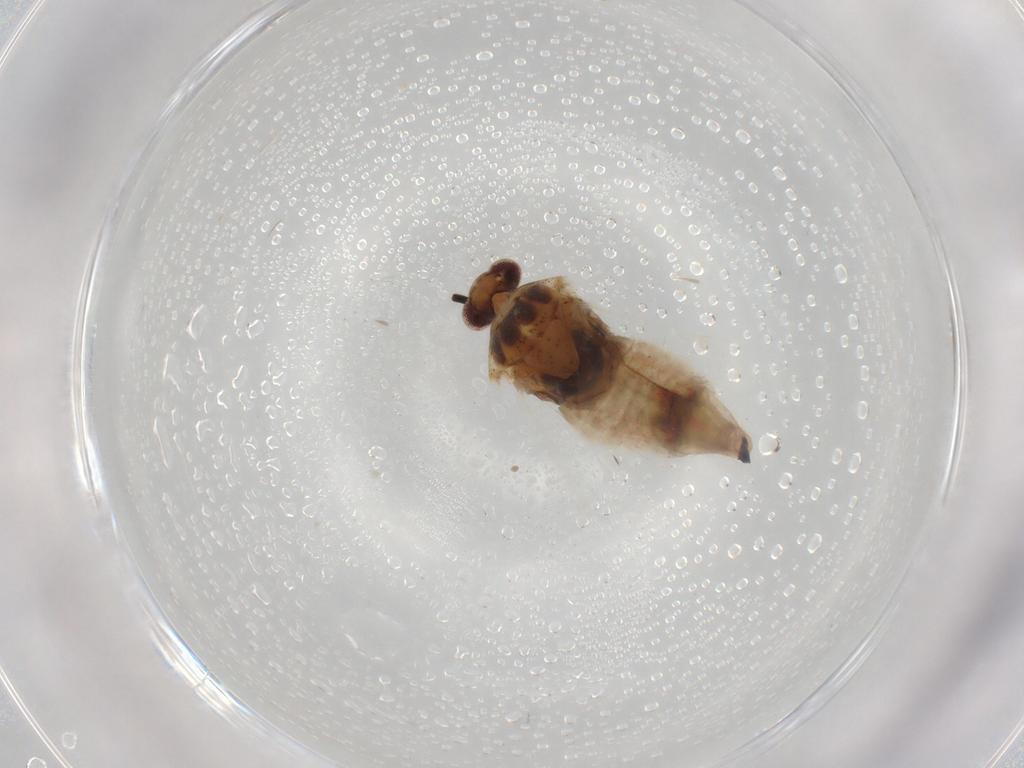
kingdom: Animalia
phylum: Arthropoda
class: Insecta
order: Hemiptera
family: Miridae
